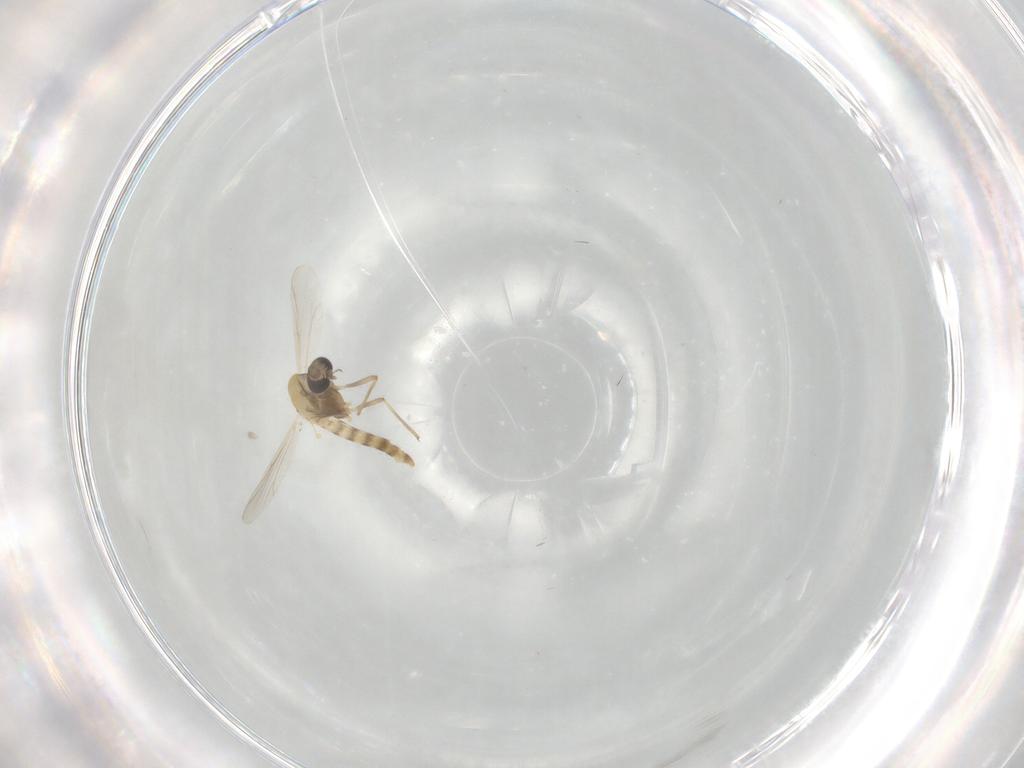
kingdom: Animalia
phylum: Arthropoda
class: Insecta
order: Diptera
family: Chironomidae
